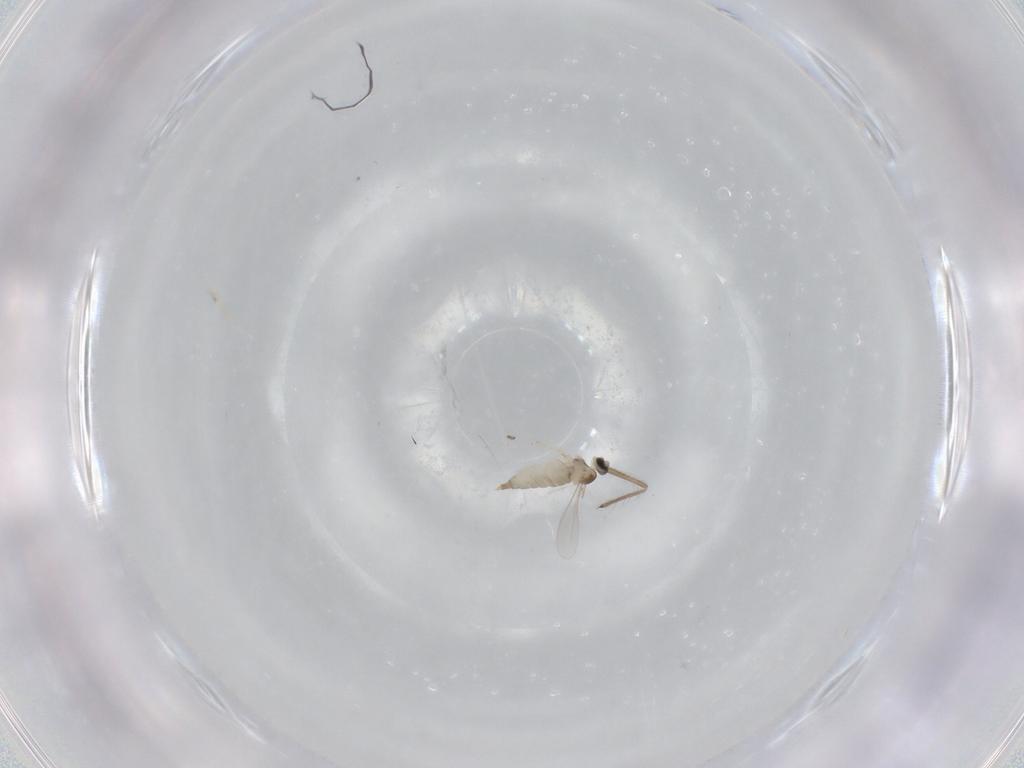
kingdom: Animalia
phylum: Arthropoda
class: Insecta
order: Diptera
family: Chironomidae
